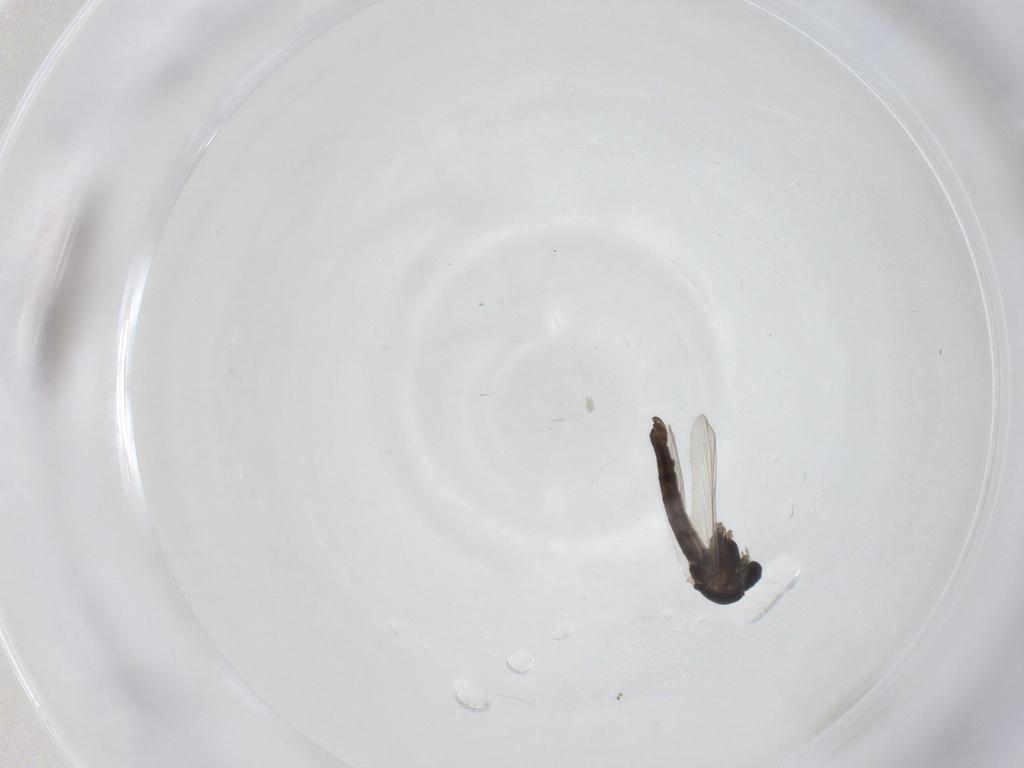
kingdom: Animalia
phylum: Arthropoda
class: Insecta
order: Diptera
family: Chironomidae
